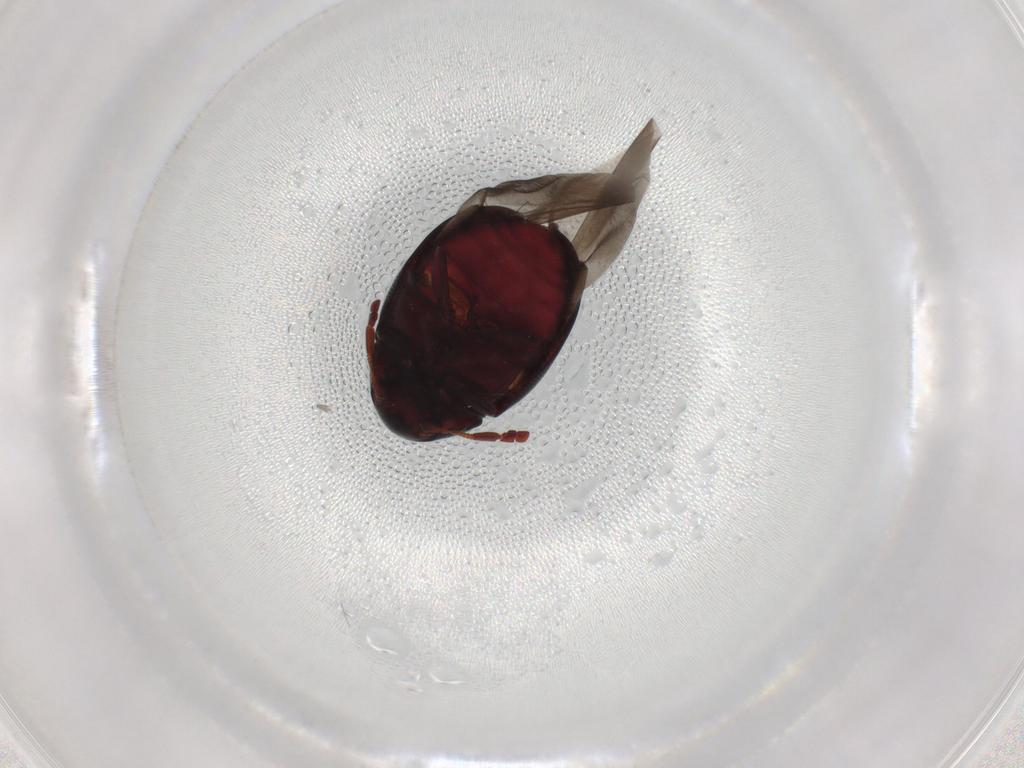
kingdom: Animalia
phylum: Arthropoda
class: Insecta
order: Coleoptera
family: Ptinidae
